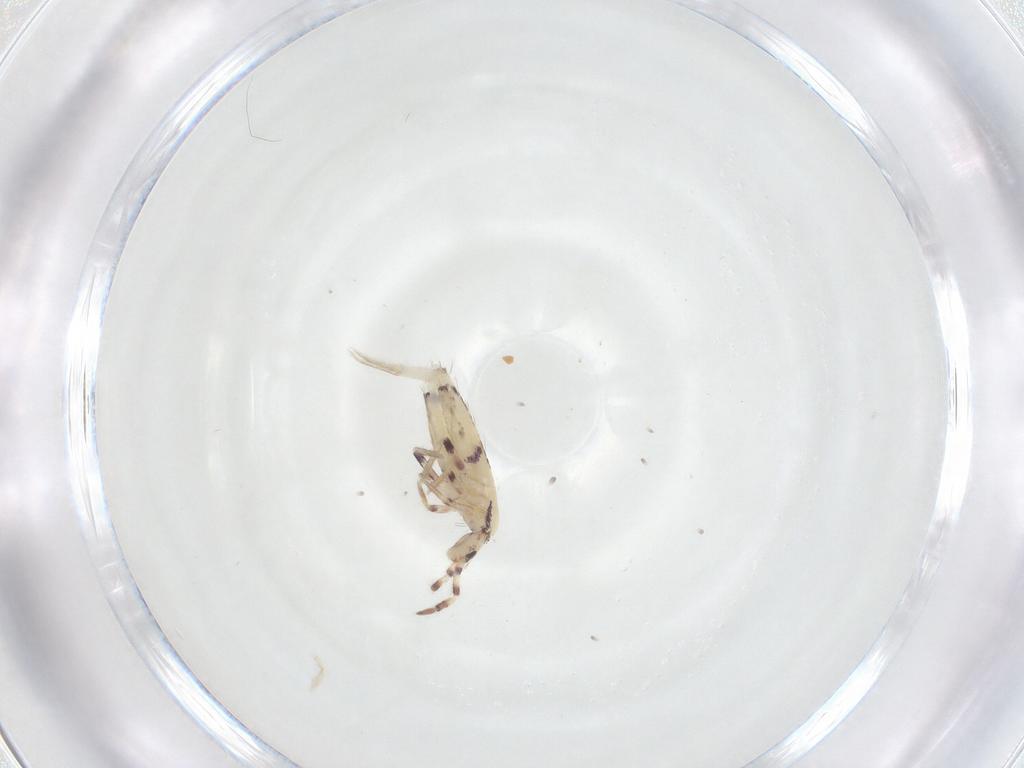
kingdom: Animalia
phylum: Arthropoda
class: Collembola
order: Entomobryomorpha
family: Entomobryidae
